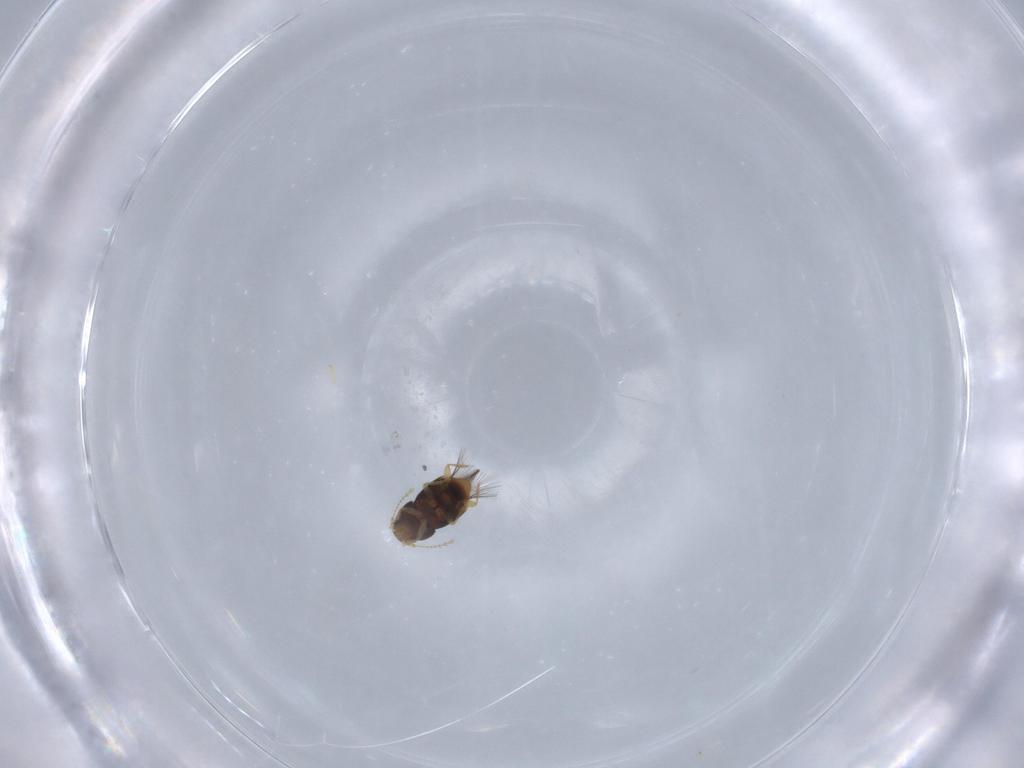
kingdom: Animalia
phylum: Arthropoda
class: Insecta
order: Coleoptera
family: Ptiliidae
